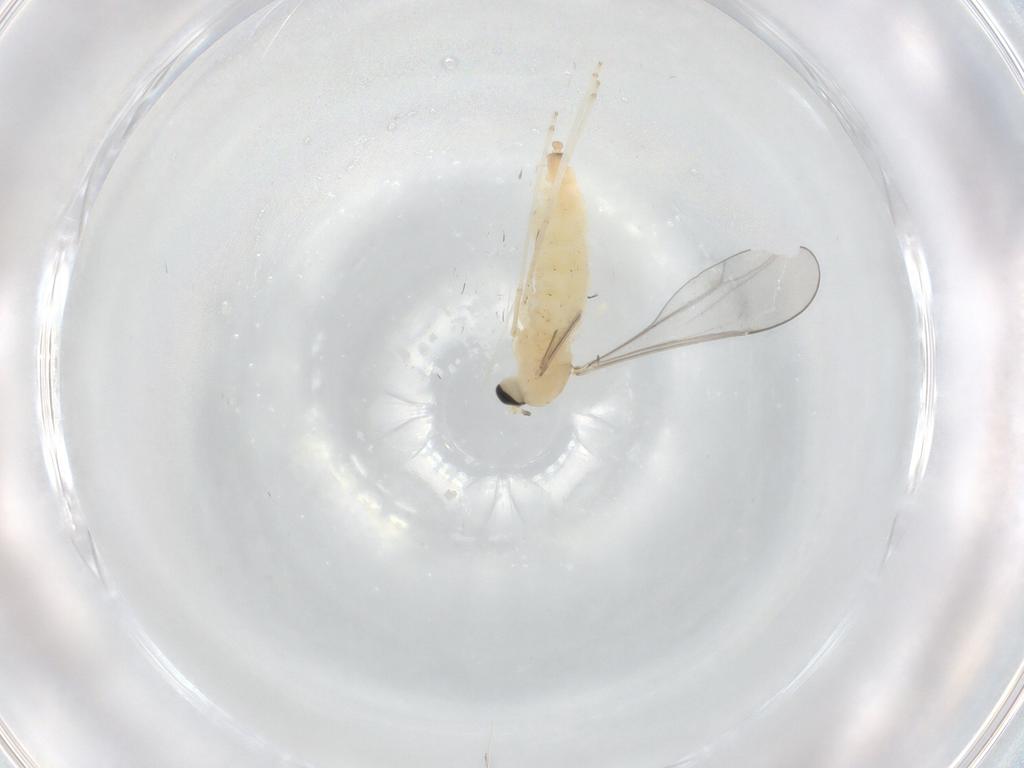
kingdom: Animalia
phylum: Arthropoda
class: Insecta
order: Diptera
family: Cecidomyiidae
